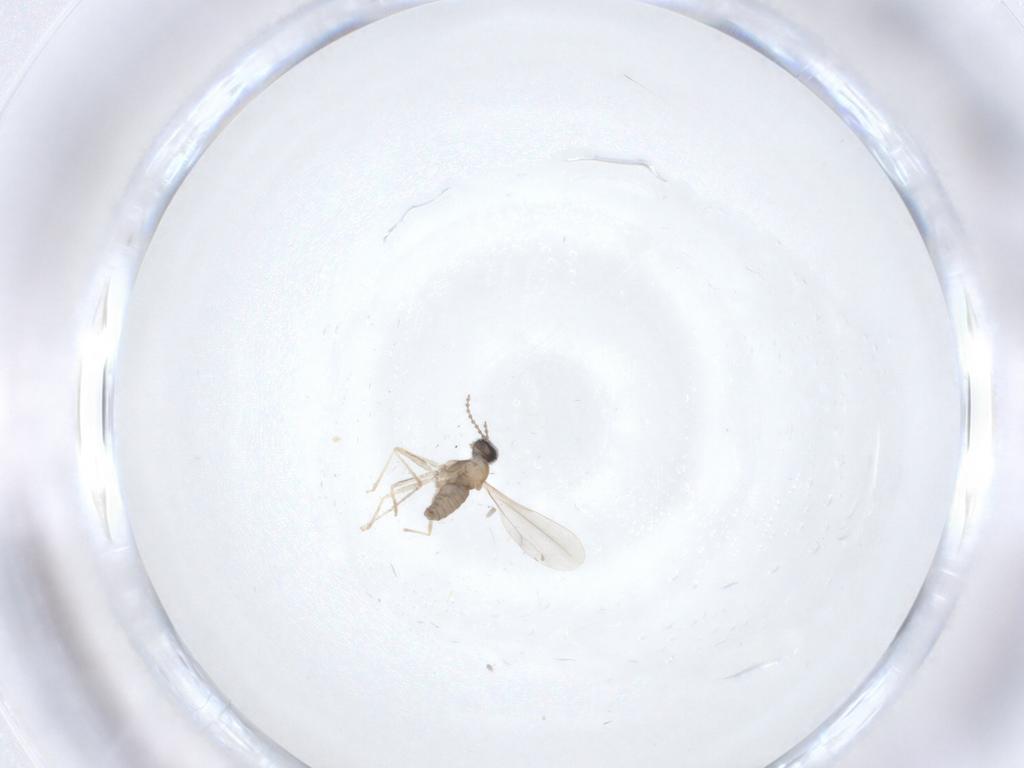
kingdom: Animalia
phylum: Arthropoda
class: Insecta
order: Diptera
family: Cecidomyiidae
